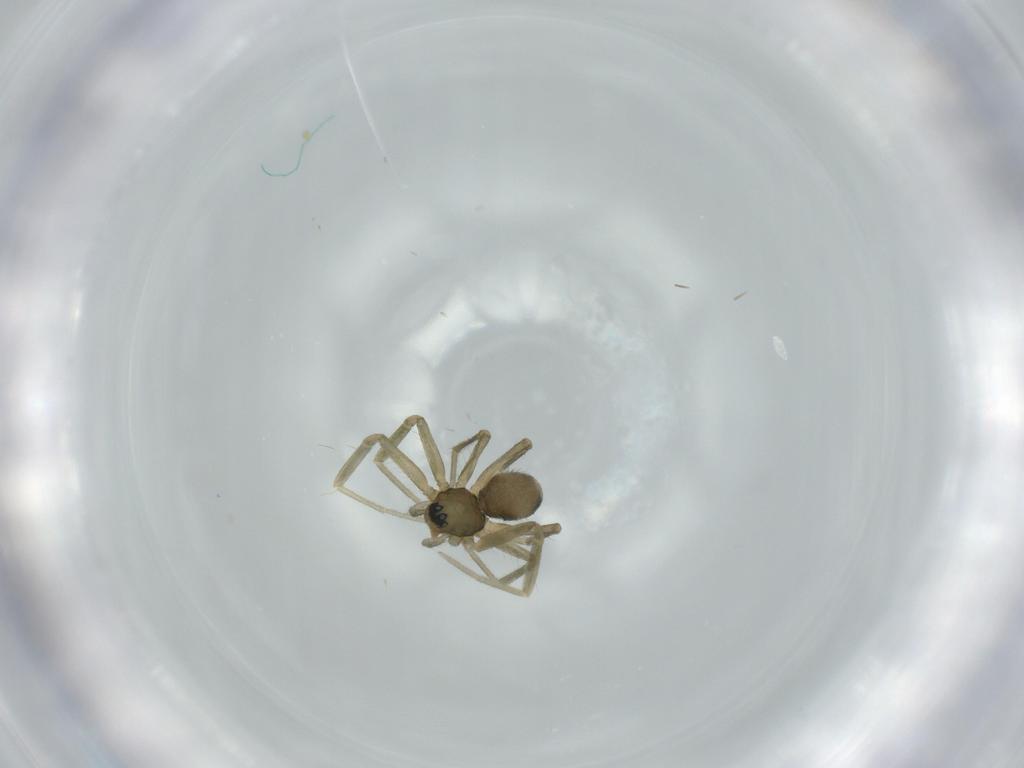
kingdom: Animalia
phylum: Arthropoda
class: Arachnida
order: Araneae
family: Linyphiidae
